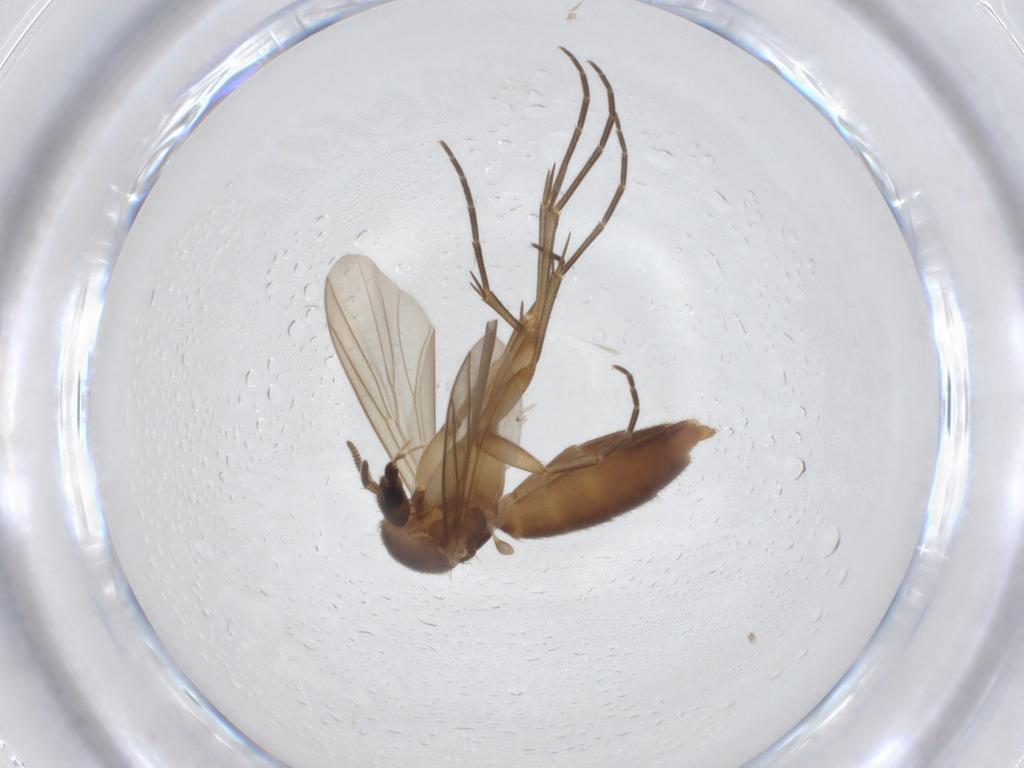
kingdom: Animalia
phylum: Arthropoda
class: Insecta
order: Diptera
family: Mycetophilidae
